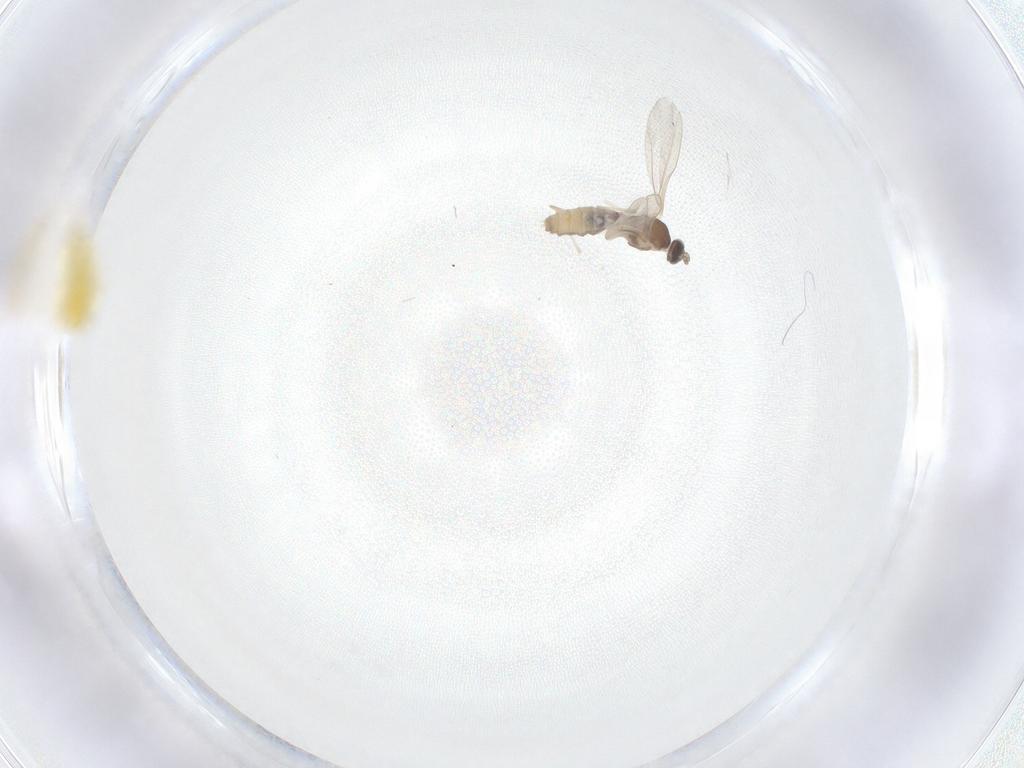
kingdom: Animalia
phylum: Arthropoda
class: Insecta
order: Diptera
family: Cecidomyiidae
